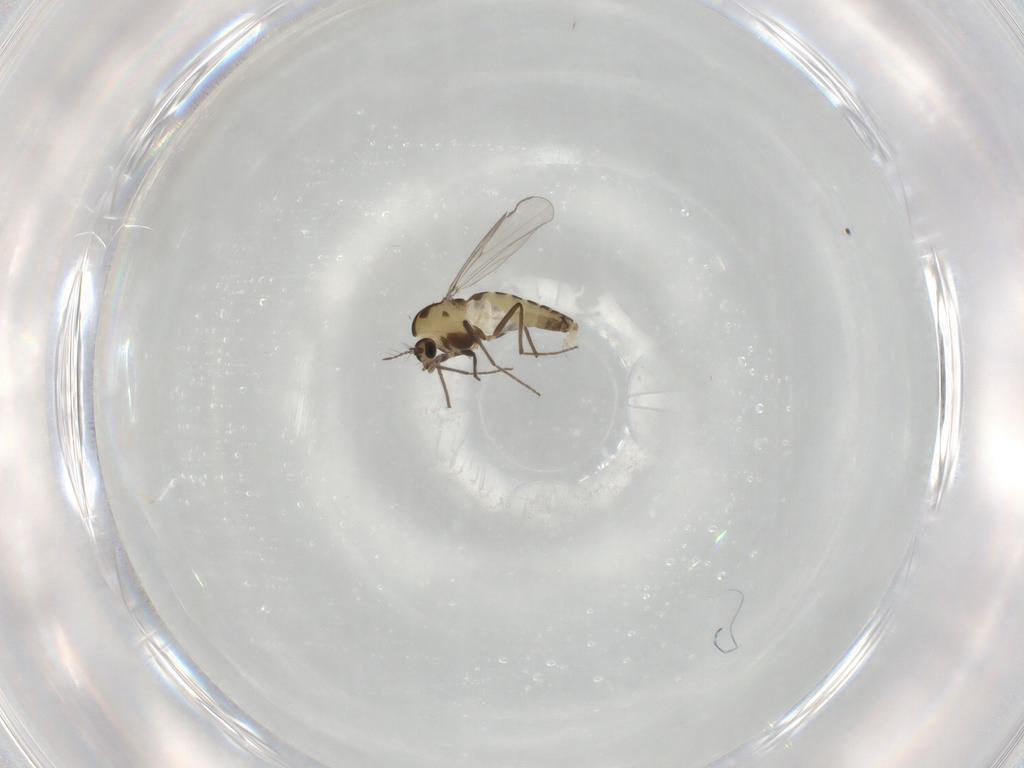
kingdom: Animalia
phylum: Arthropoda
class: Insecta
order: Diptera
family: Chironomidae
